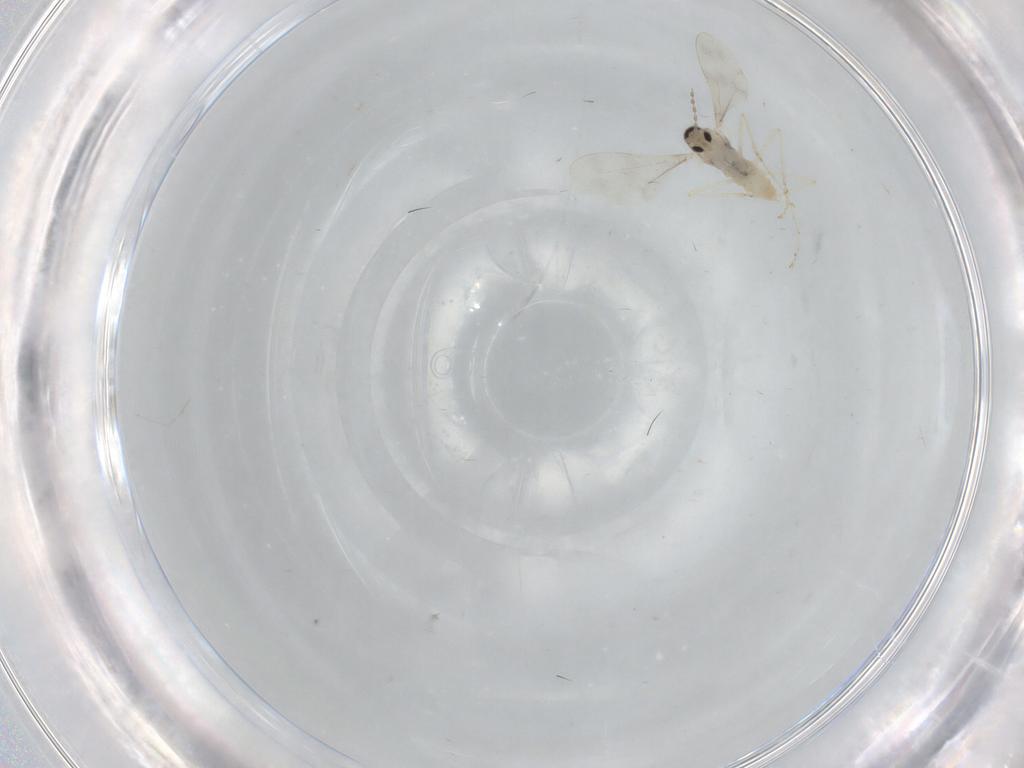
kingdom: Animalia
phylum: Arthropoda
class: Insecta
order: Diptera
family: Cecidomyiidae
